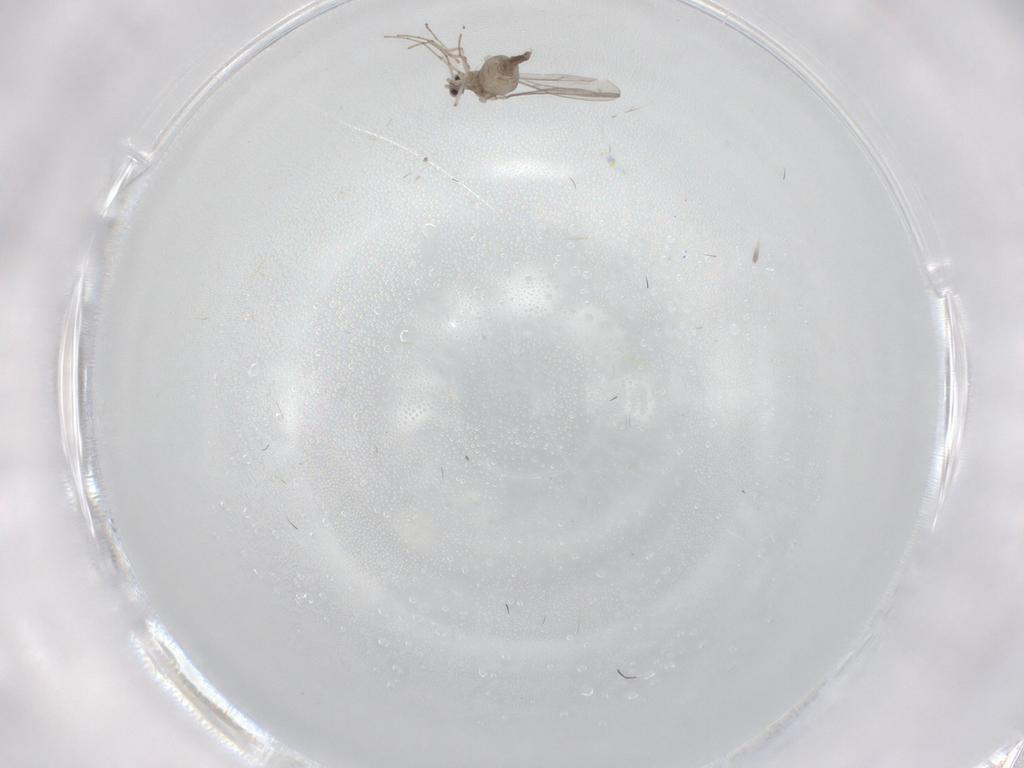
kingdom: Animalia
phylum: Arthropoda
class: Insecta
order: Diptera
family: Cecidomyiidae
